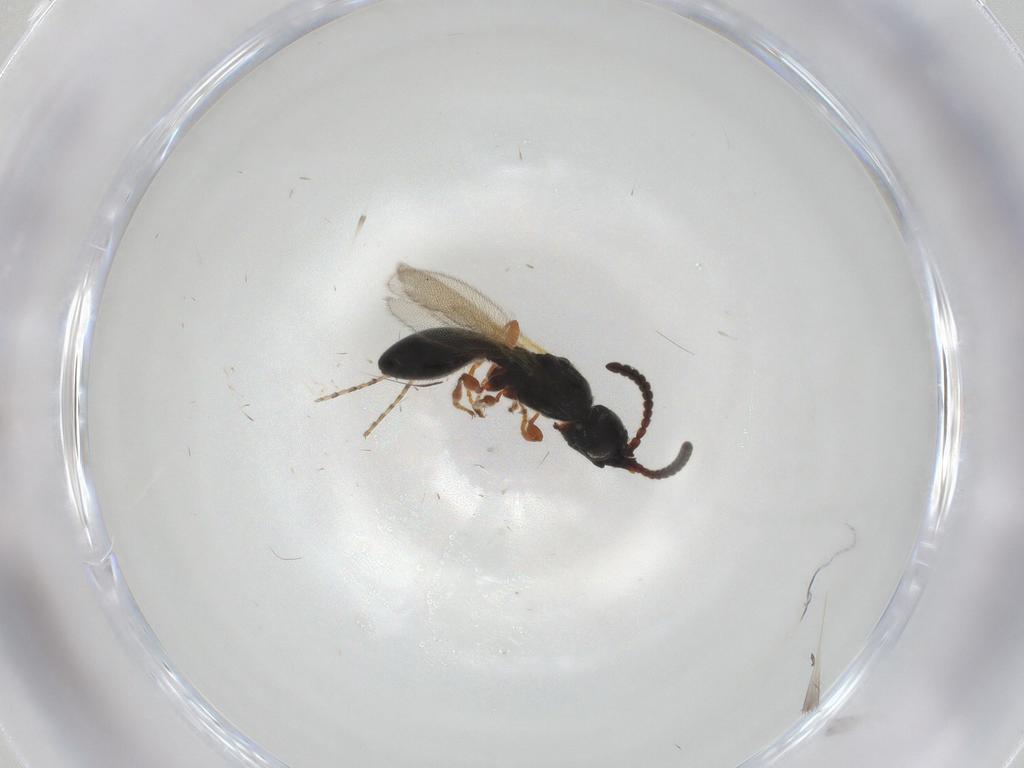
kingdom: Animalia
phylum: Arthropoda
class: Insecta
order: Hymenoptera
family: Diapriidae
